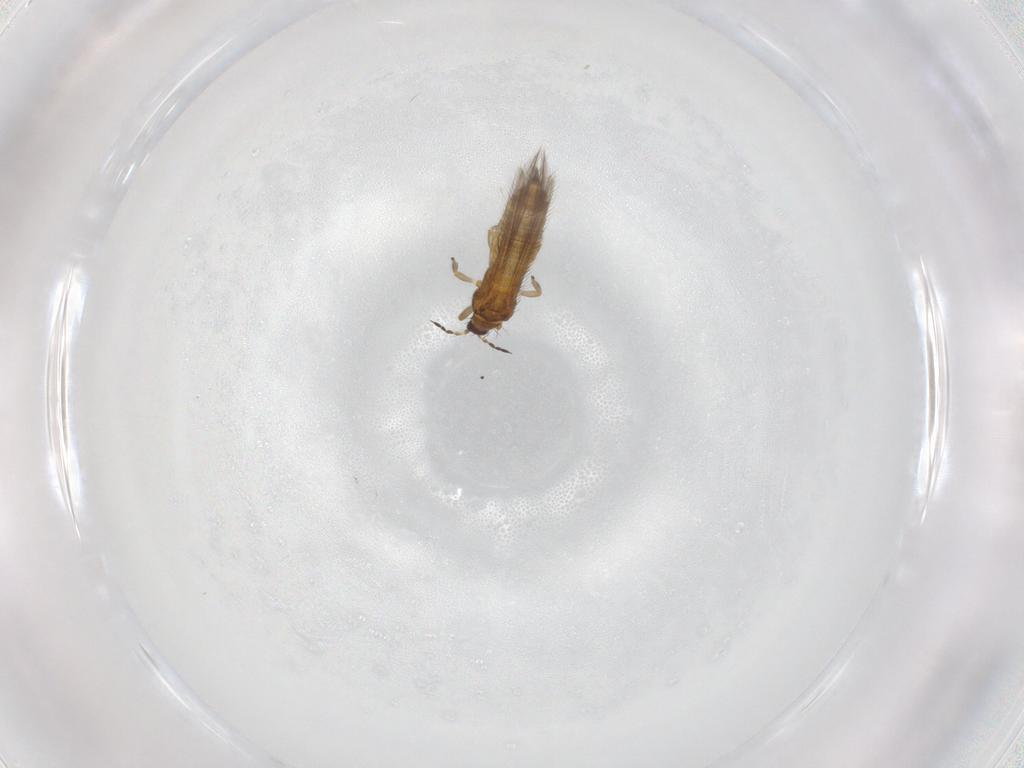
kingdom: Animalia
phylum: Arthropoda
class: Insecta
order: Thysanoptera
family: Thripidae
